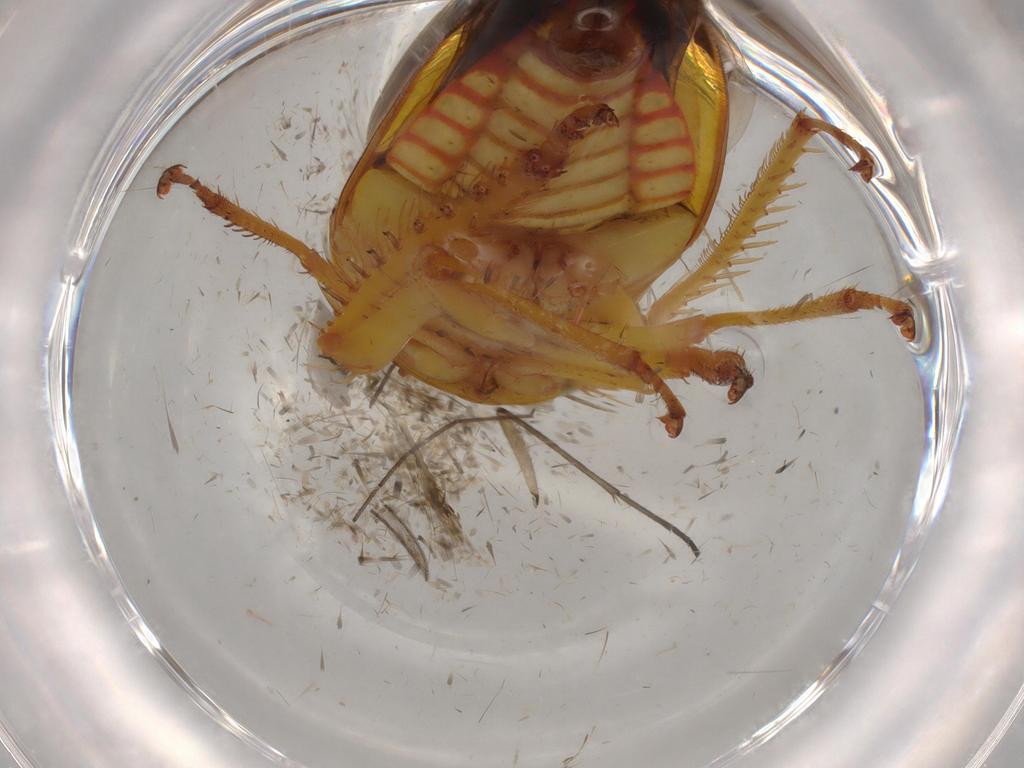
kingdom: Animalia
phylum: Arthropoda
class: Insecta
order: Hemiptera
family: Cicadellidae
